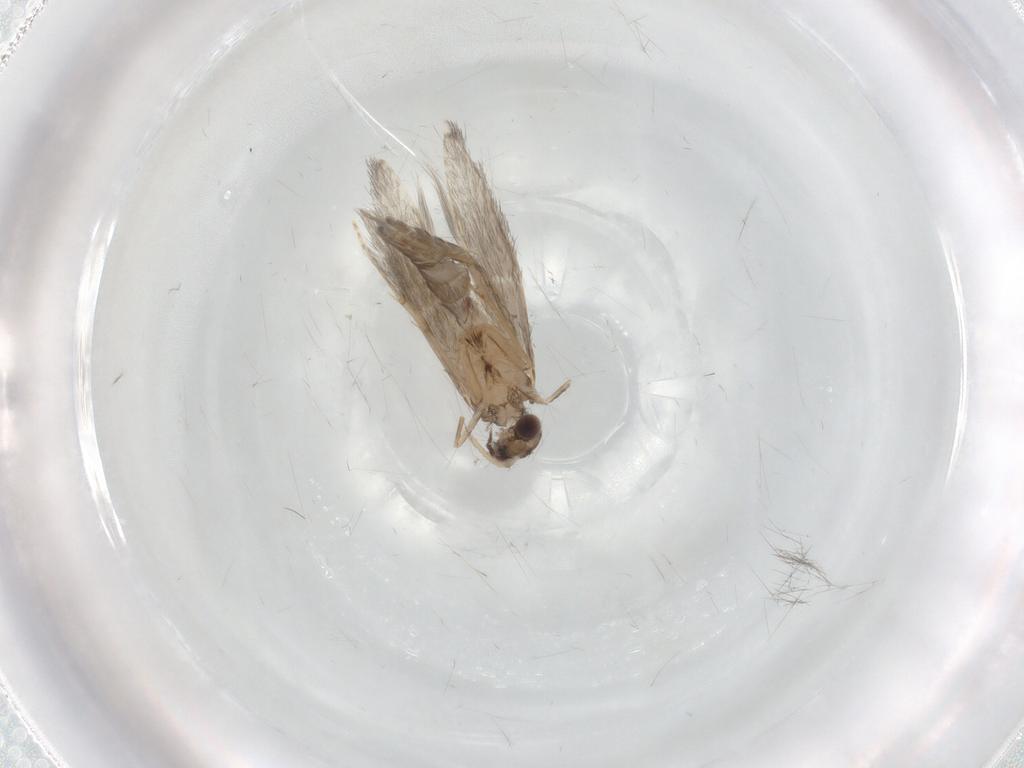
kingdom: Animalia
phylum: Arthropoda
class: Insecta
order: Trichoptera
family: Hydroptilidae
